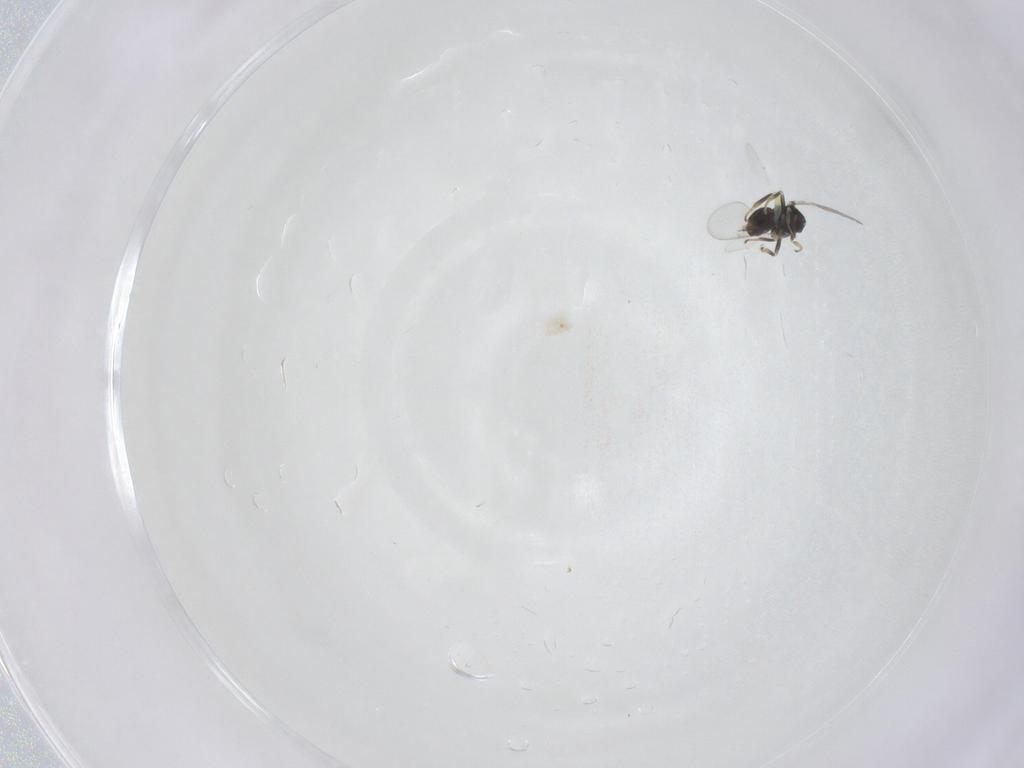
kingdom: Animalia
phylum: Arthropoda
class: Insecta
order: Hymenoptera
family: Aphelinidae
